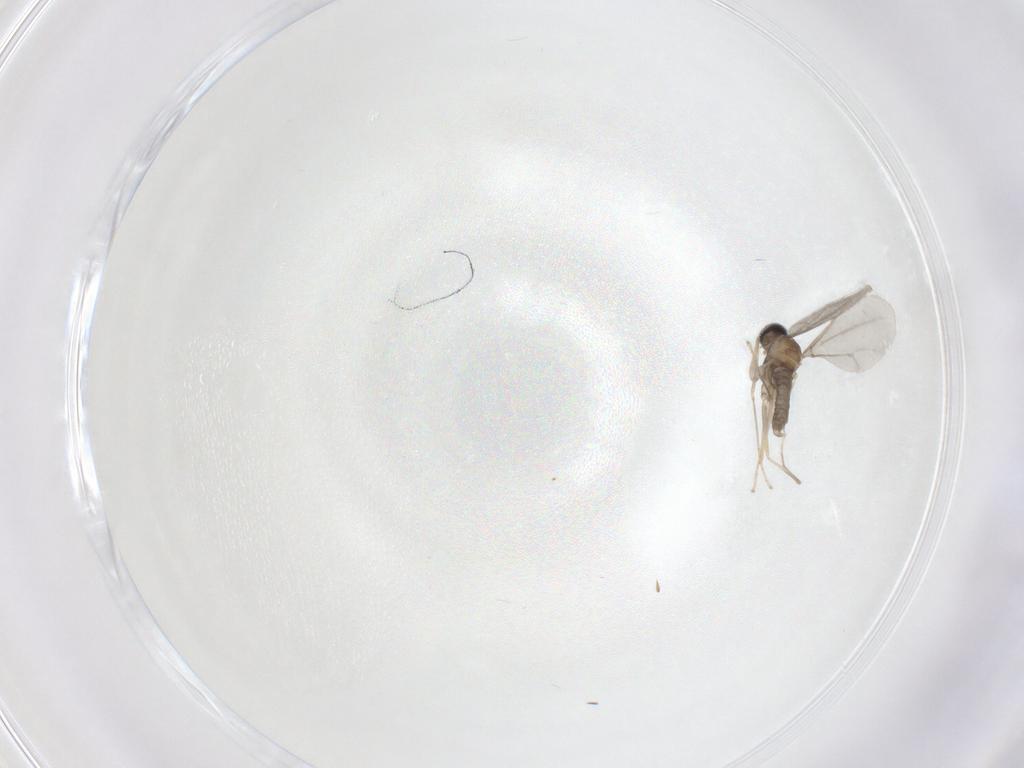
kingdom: Animalia
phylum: Arthropoda
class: Insecta
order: Diptera
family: Cecidomyiidae
